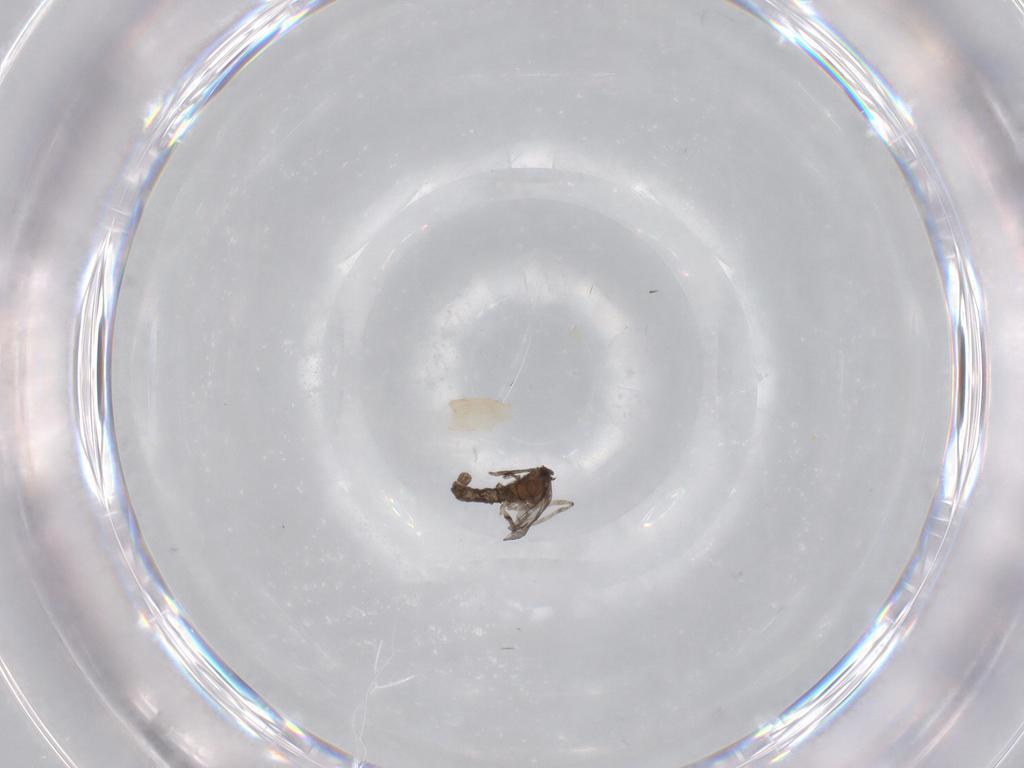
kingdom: Animalia
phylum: Arthropoda
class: Insecta
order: Diptera
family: Cecidomyiidae
